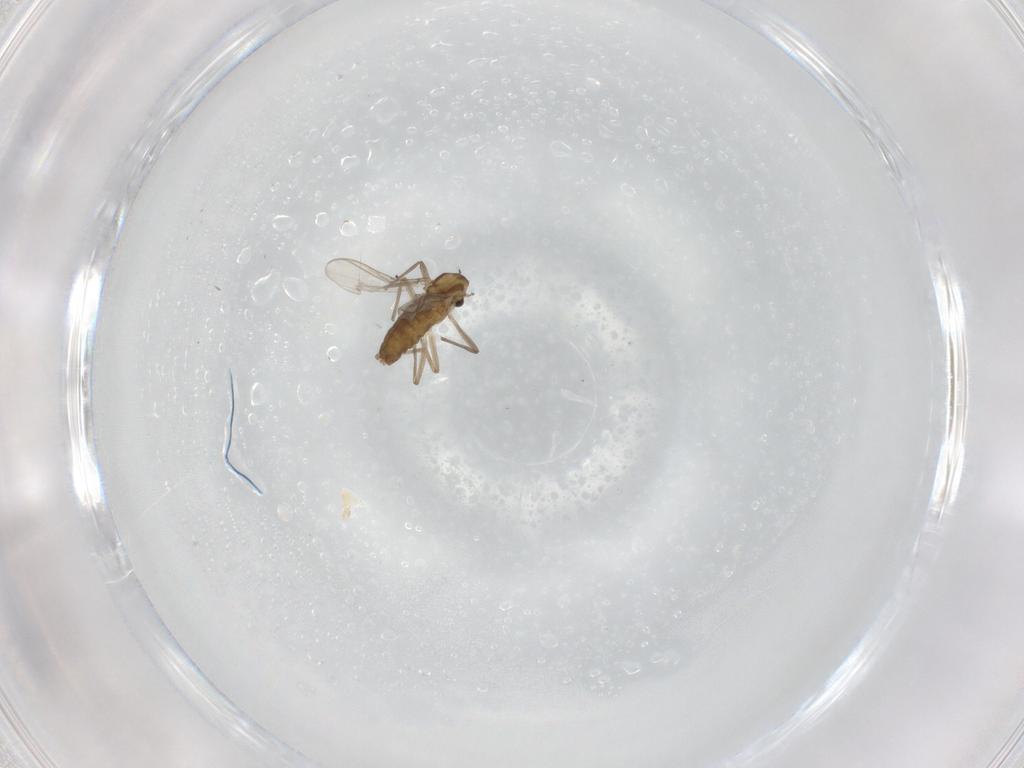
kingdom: Animalia
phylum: Arthropoda
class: Insecta
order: Diptera
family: Chironomidae
